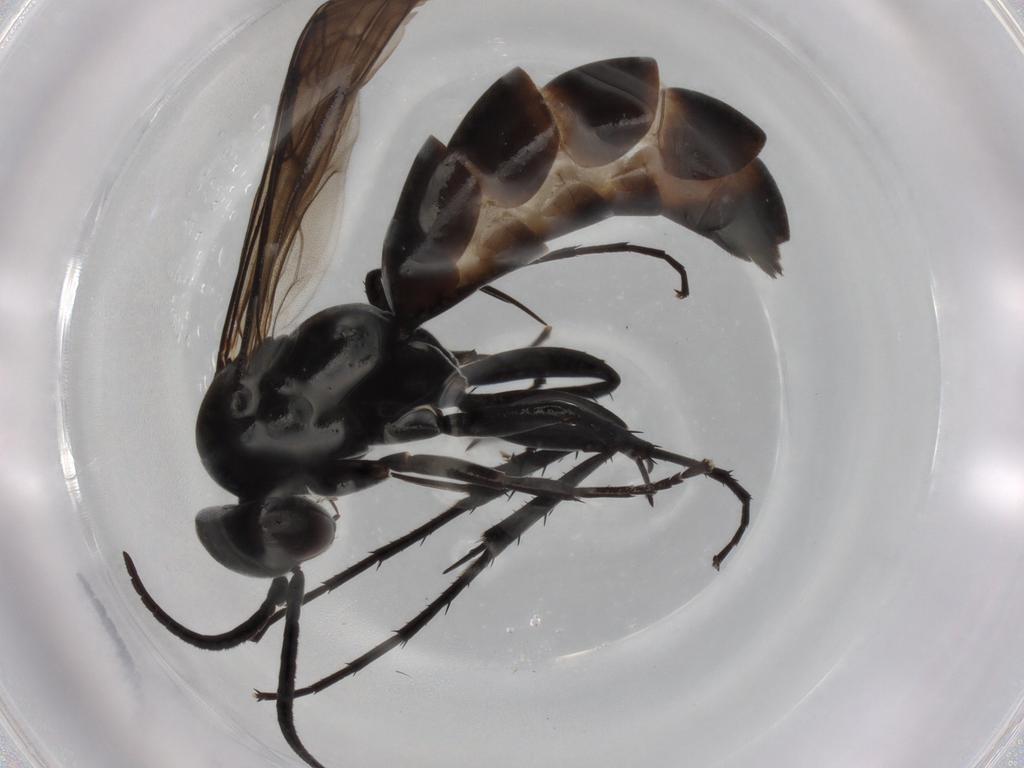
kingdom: Animalia
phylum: Arthropoda
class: Insecta
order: Hymenoptera
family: Pompilidae
